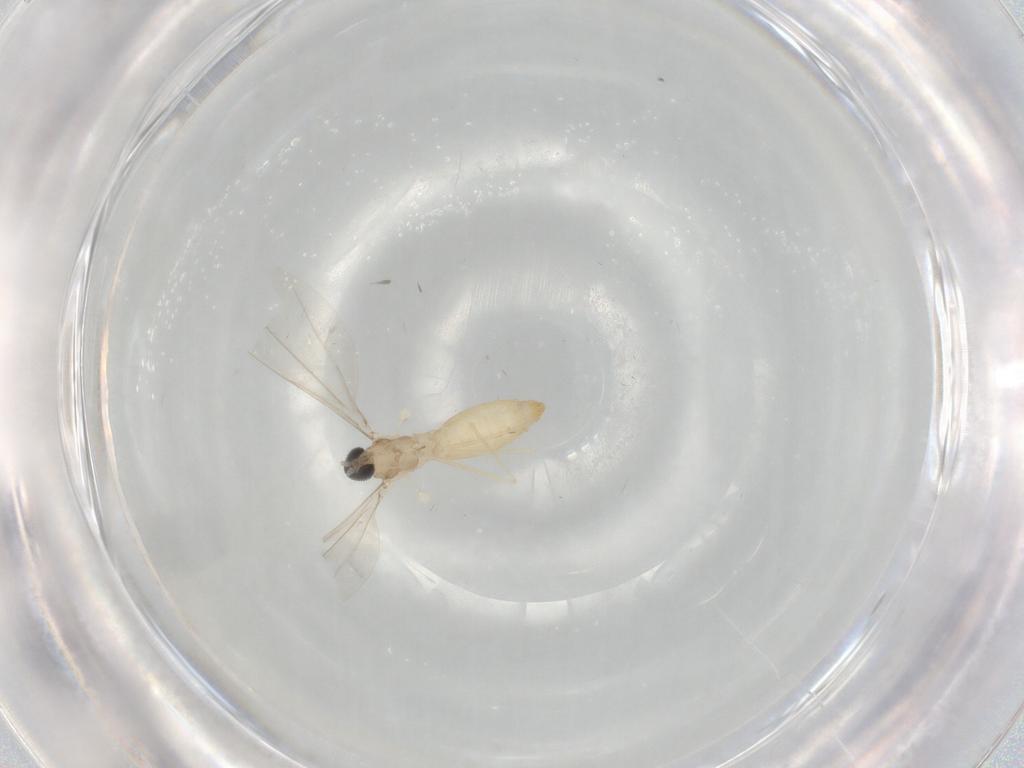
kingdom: Animalia
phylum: Arthropoda
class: Insecta
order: Diptera
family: Cecidomyiidae
